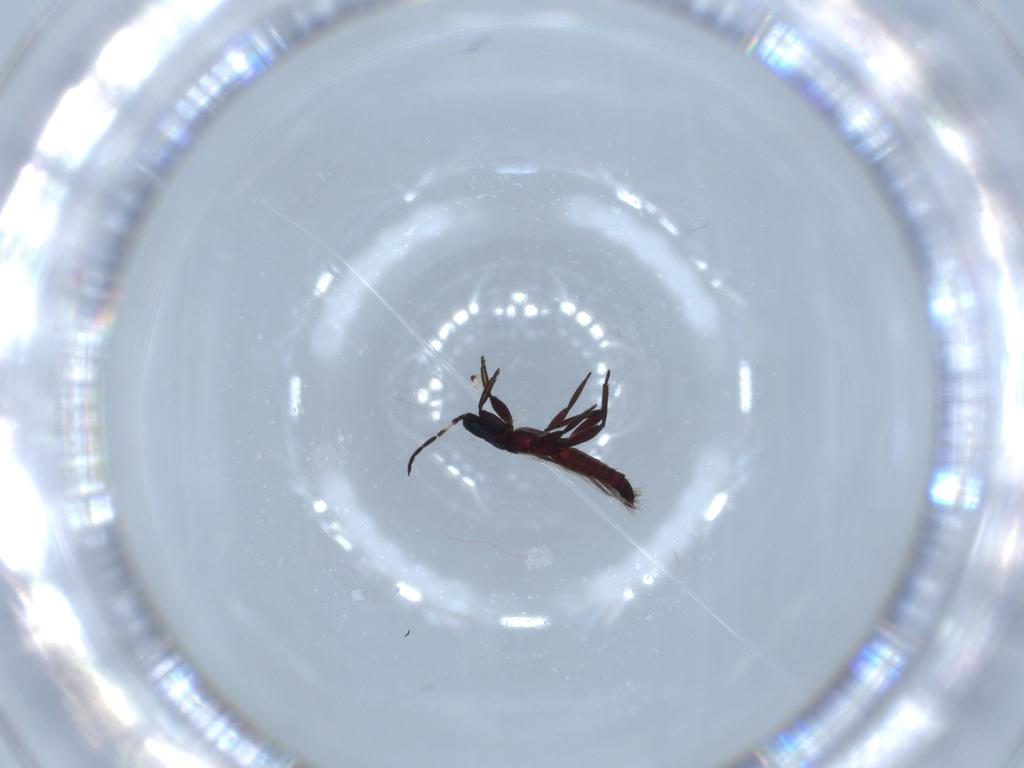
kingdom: Animalia
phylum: Arthropoda
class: Insecta
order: Thysanoptera
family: Aeolothripidae
